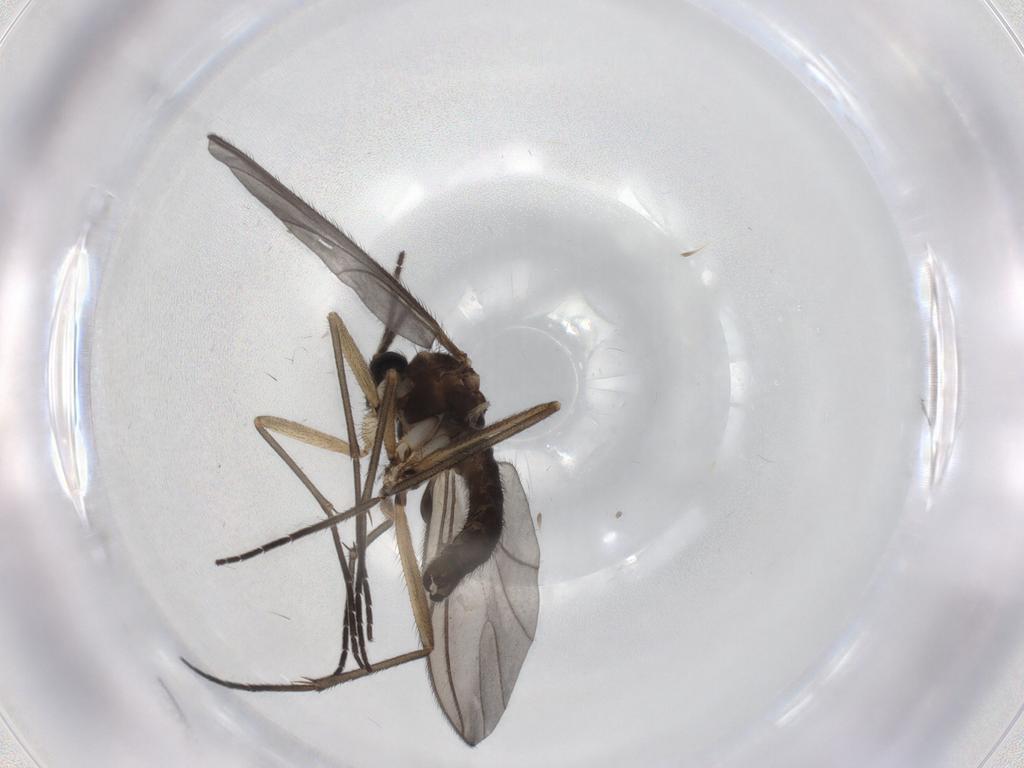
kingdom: Animalia
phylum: Arthropoda
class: Insecta
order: Diptera
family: Sciaridae
